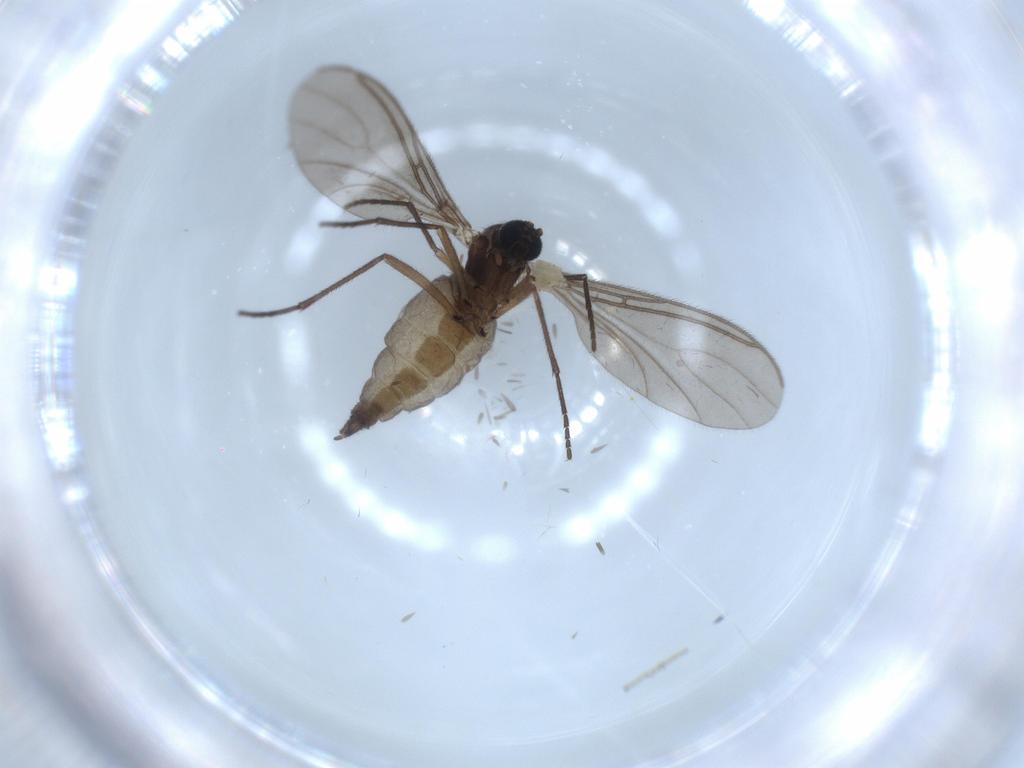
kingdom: Animalia
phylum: Arthropoda
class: Insecta
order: Diptera
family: Sciaridae
